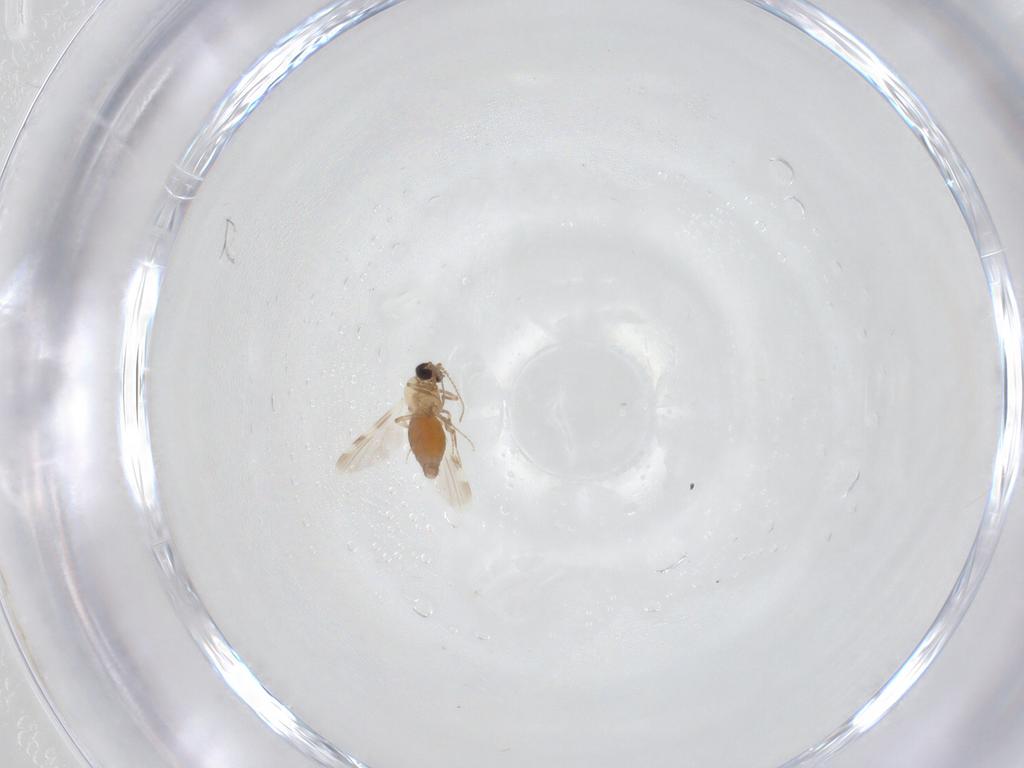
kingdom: Animalia
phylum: Arthropoda
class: Insecta
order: Diptera
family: Ceratopogonidae
